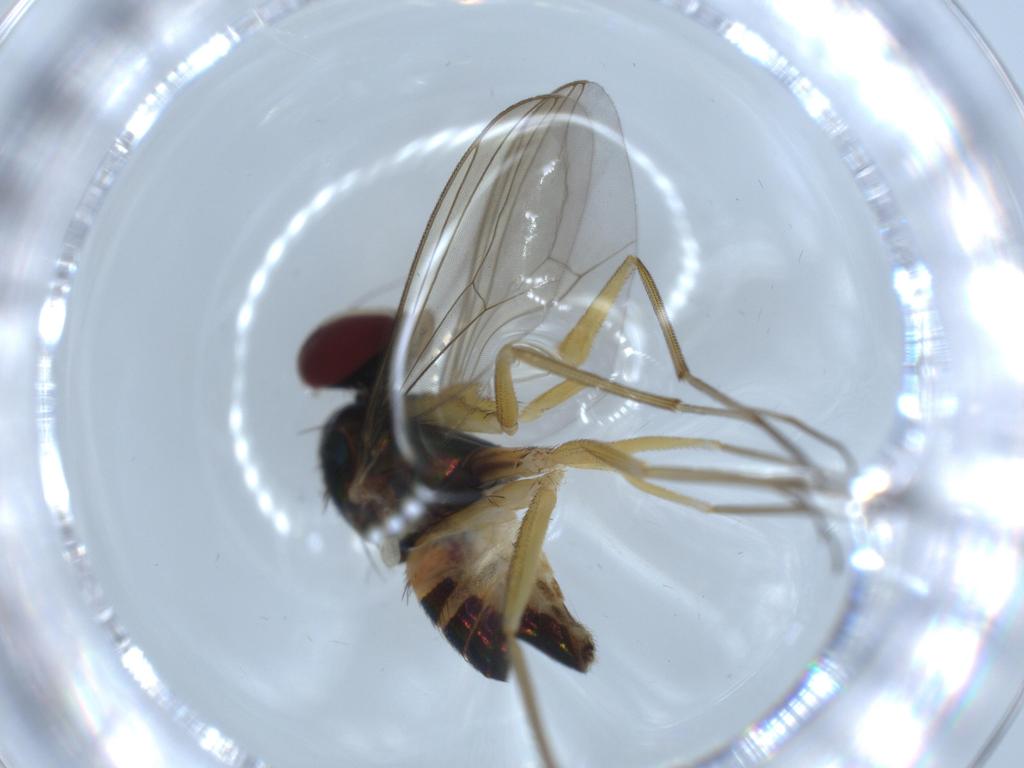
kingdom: Animalia
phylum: Arthropoda
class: Insecta
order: Diptera
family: Dolichopodidae
